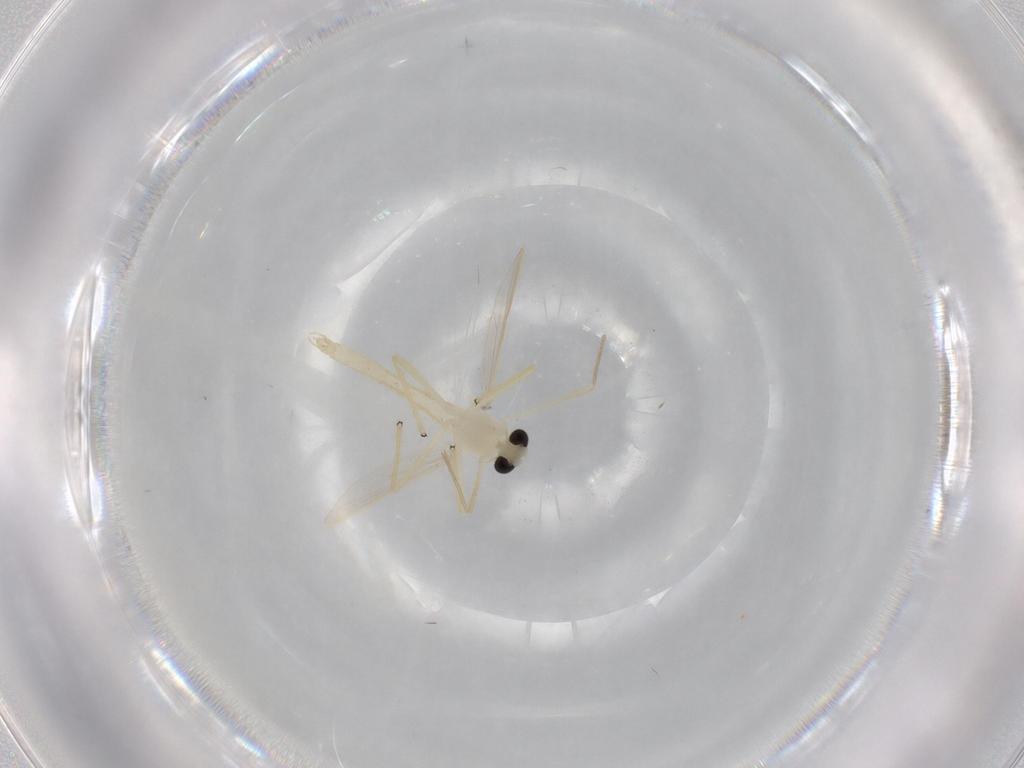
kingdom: Animalia
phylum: Arthropoda
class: Insecta
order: Diptera
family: Chironomidae
